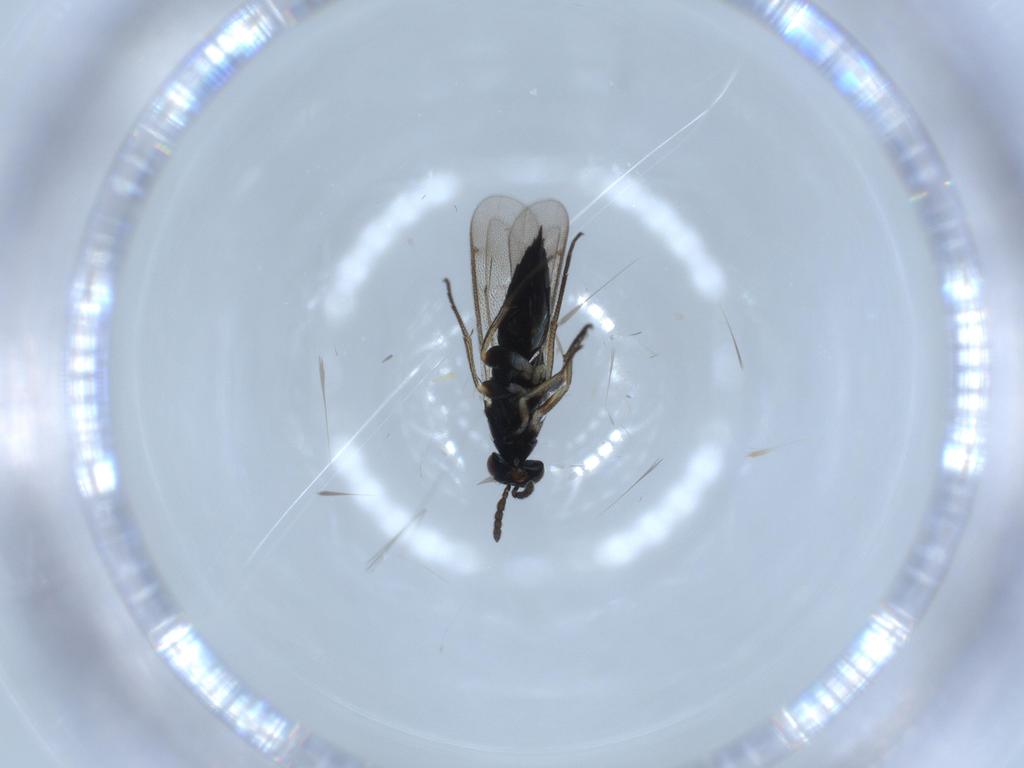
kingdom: Animalia
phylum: Arthropoda
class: Insecta
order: Hymenoptera
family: Eulophidae
